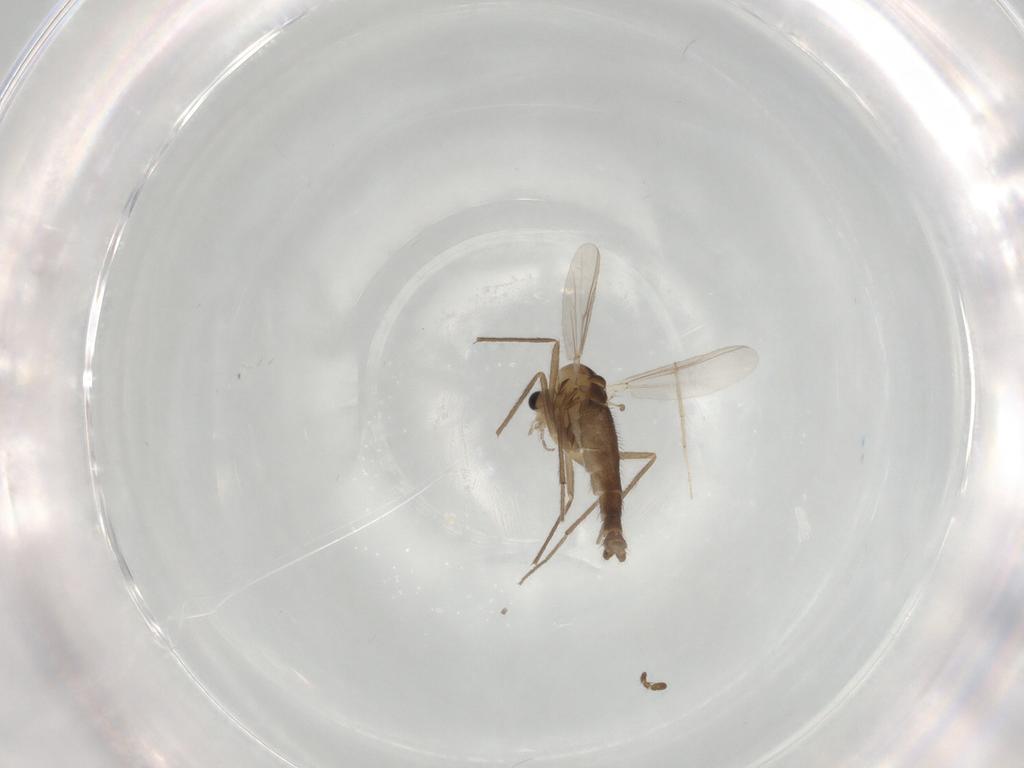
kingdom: Animalia
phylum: Arthropoda
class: Insecta
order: Diptera
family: Chironomidae
